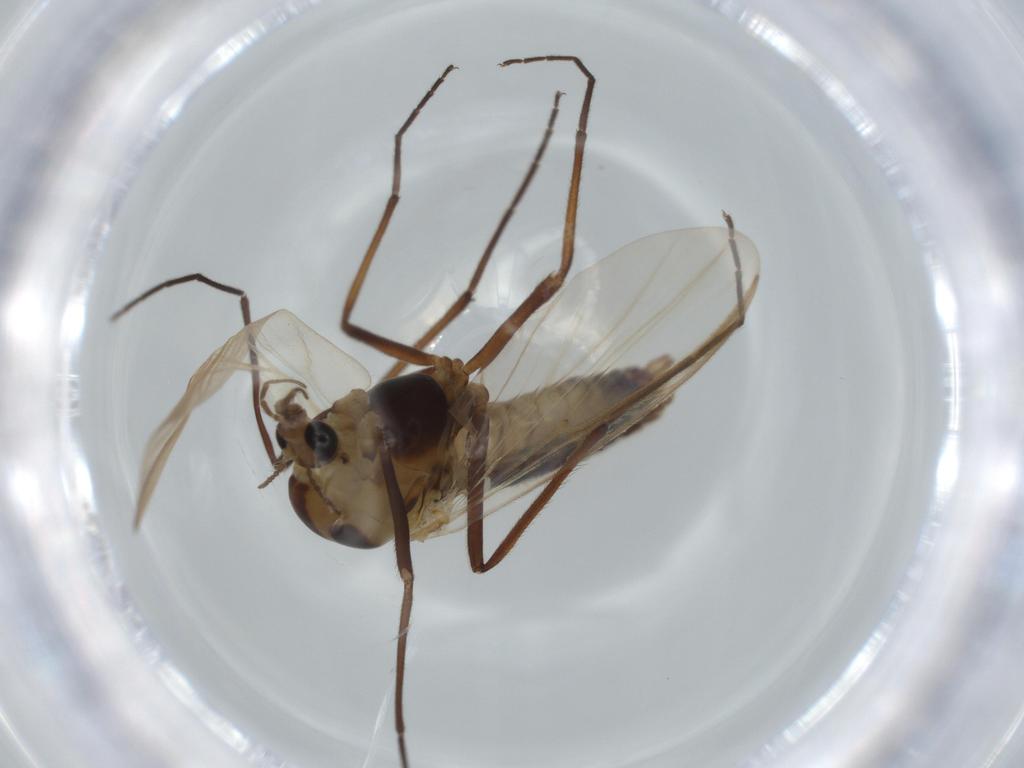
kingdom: Animalia
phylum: Arthropoda
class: Insecta
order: Diptera
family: Chironomidae
